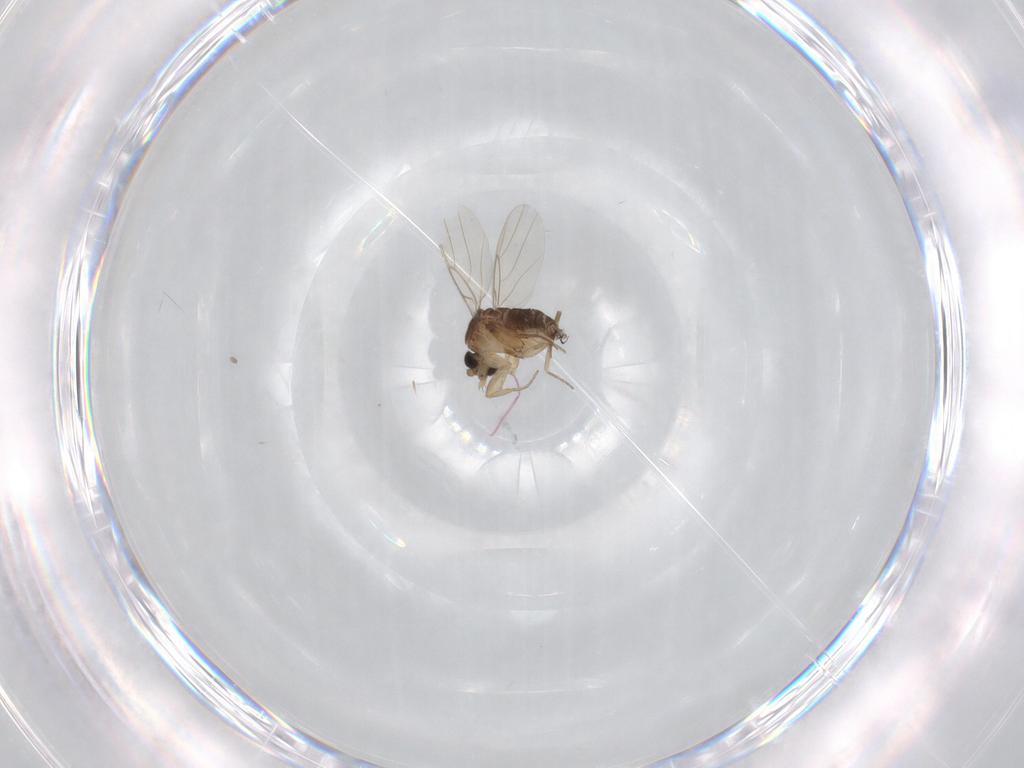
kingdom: Animalia
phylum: Arthropoda
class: Insecta
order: Diptera
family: Phoridae
